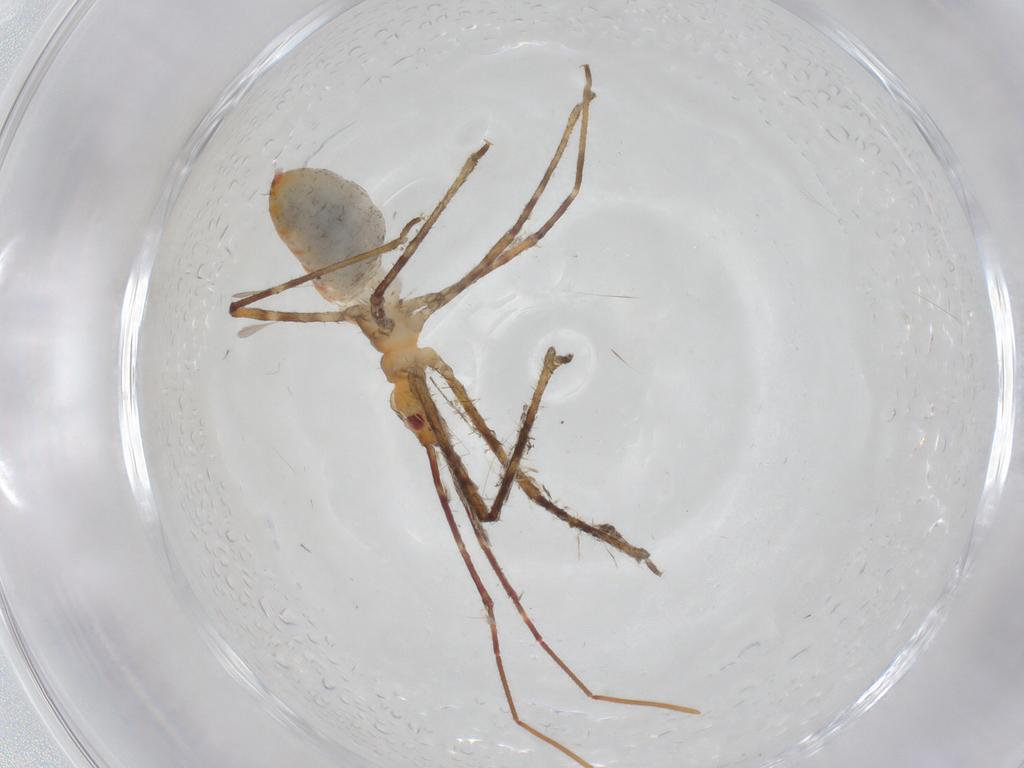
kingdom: Animalia
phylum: Arthropoda
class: Insecta
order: Hemiptera
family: Reduviidae
